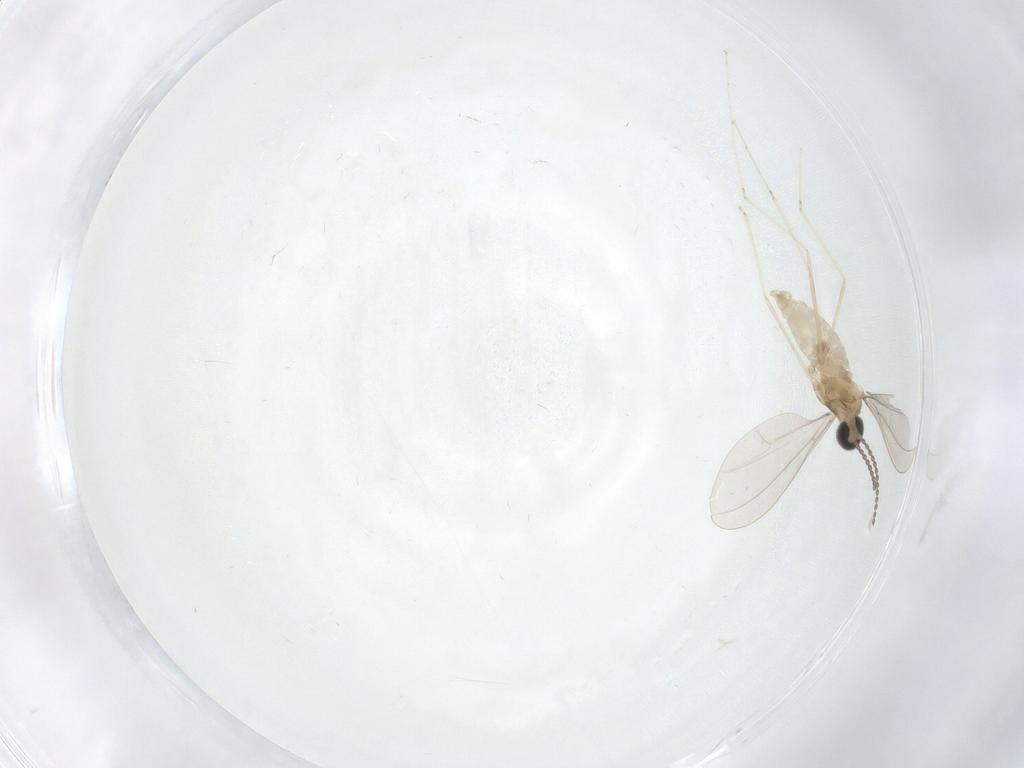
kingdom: Animalia
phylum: Arthropoda
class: Insecta
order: Diptera
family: Cecidomyiidae
